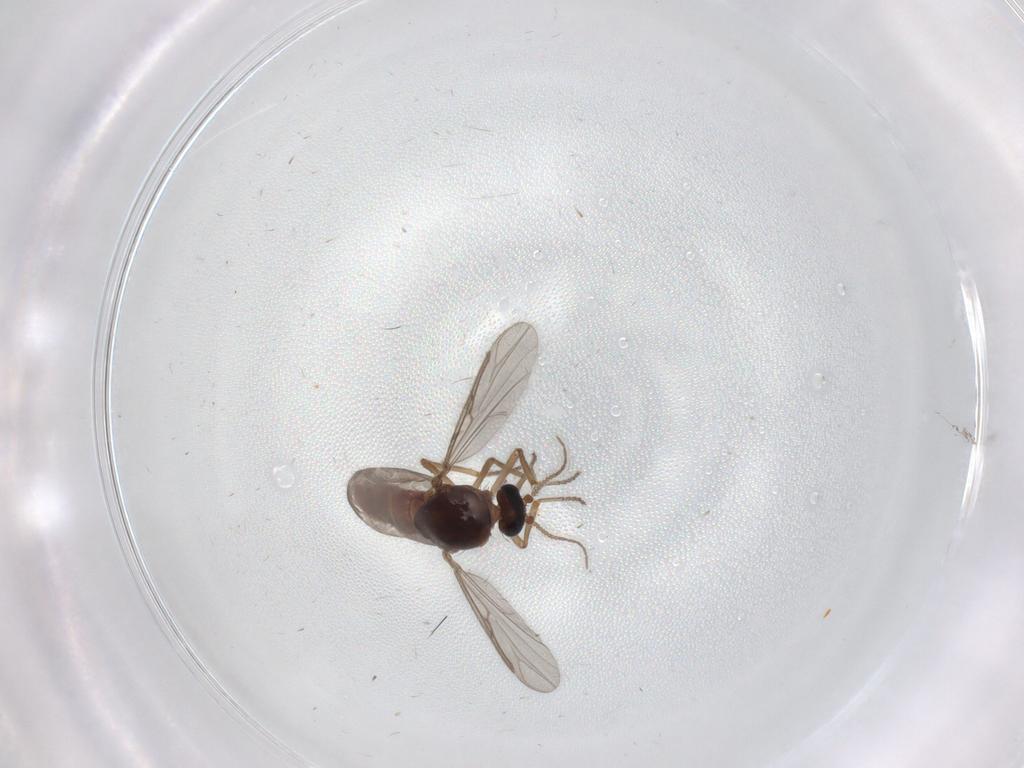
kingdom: Animalia
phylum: Arthropoda
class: Insecta
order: Diptera
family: Ceratopogonidae
